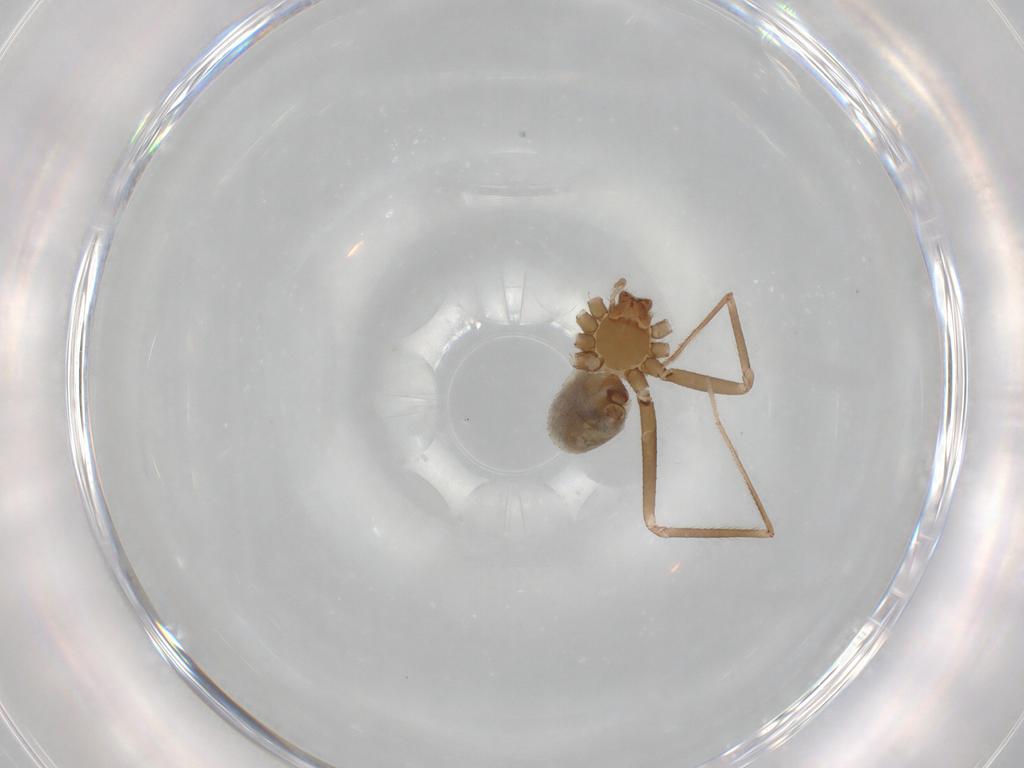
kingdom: Animalia
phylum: Arthropoda
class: Arachnida
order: Araneae
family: Pholcidae
